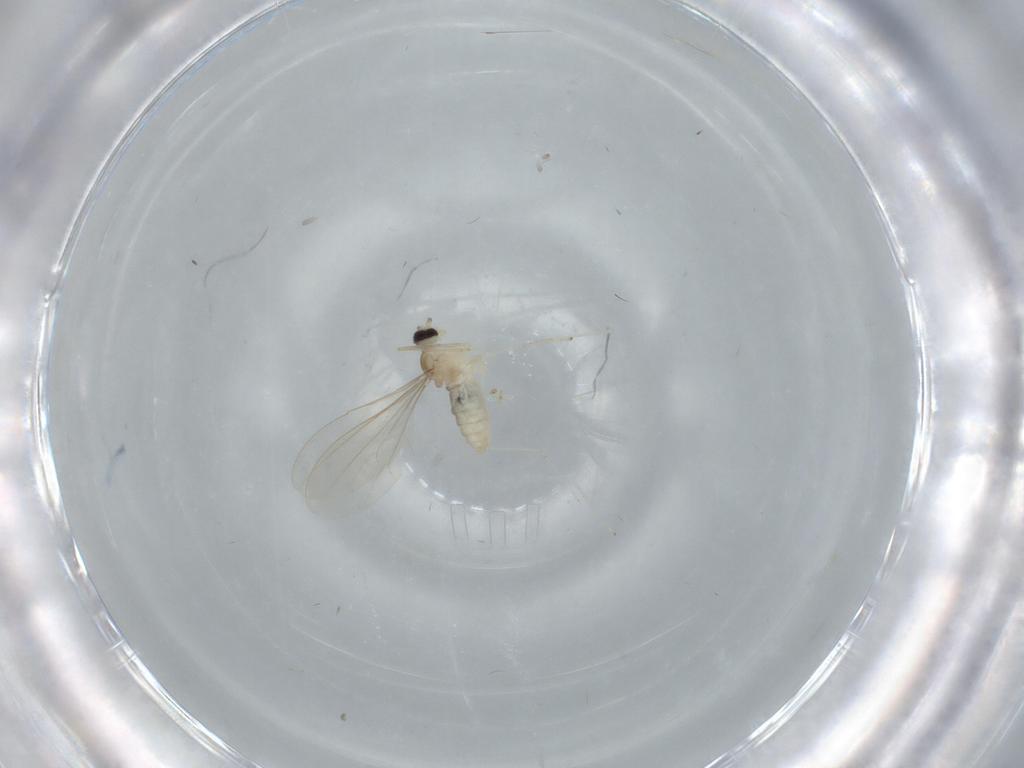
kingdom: Animalia
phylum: Arthropoda
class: Insecta
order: Diptera
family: Cecidomyiidae
